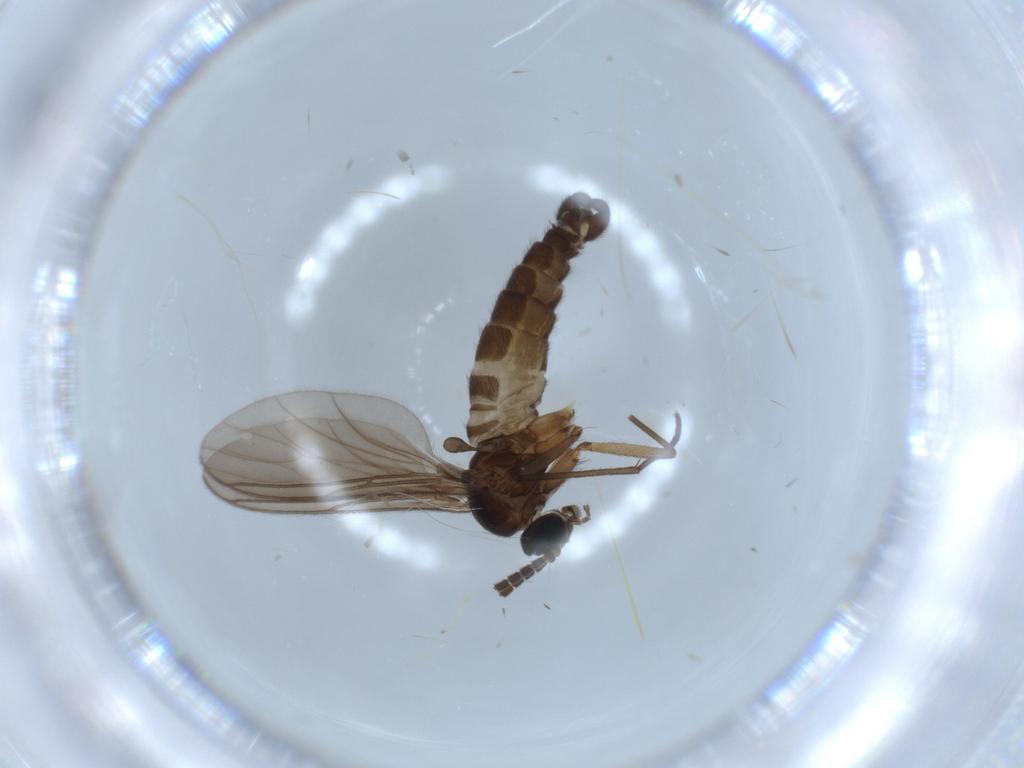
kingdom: Animalia
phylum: Arthropoda
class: Insecta
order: Diptera
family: Sciaridae
